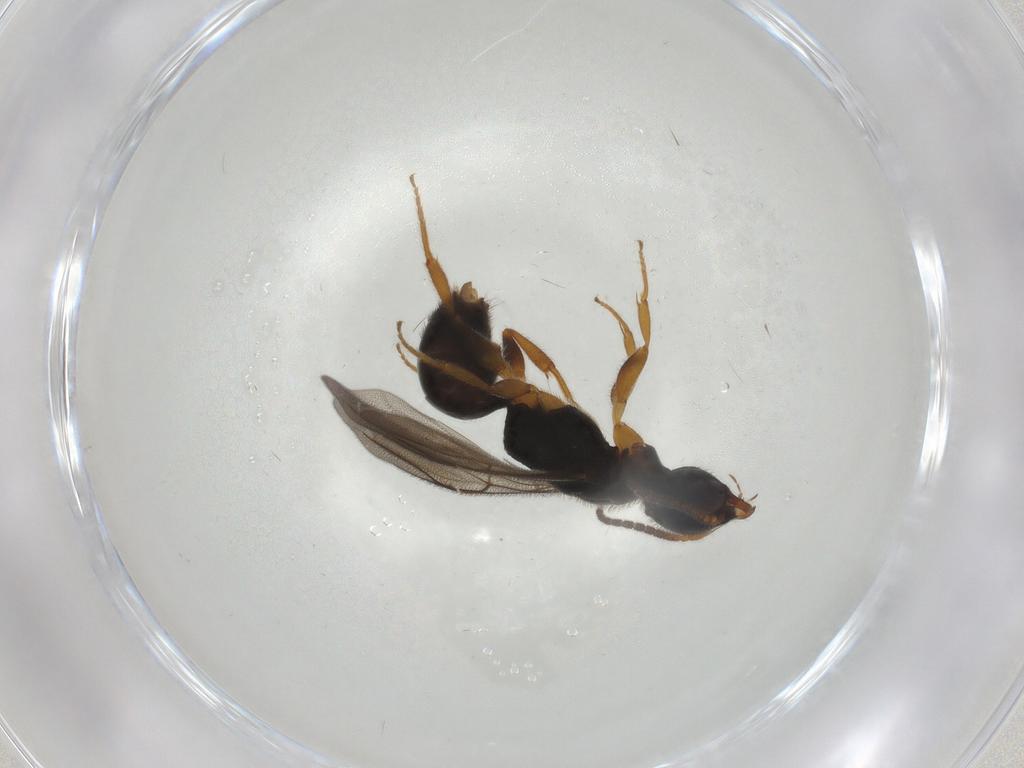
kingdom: Animalia
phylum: Arthropoda
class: Insecta
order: Hymenoptera
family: Bethylidae
